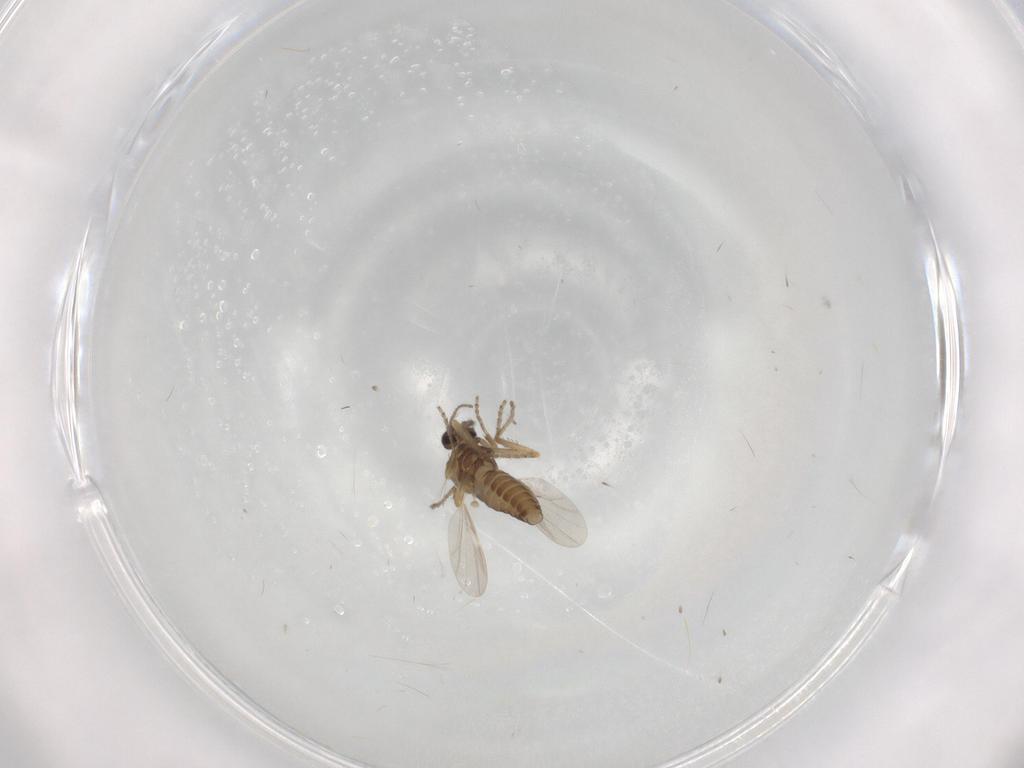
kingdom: Animalia
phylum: Arthropoda
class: Insecta
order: Diptera
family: Ceratopogonidae
